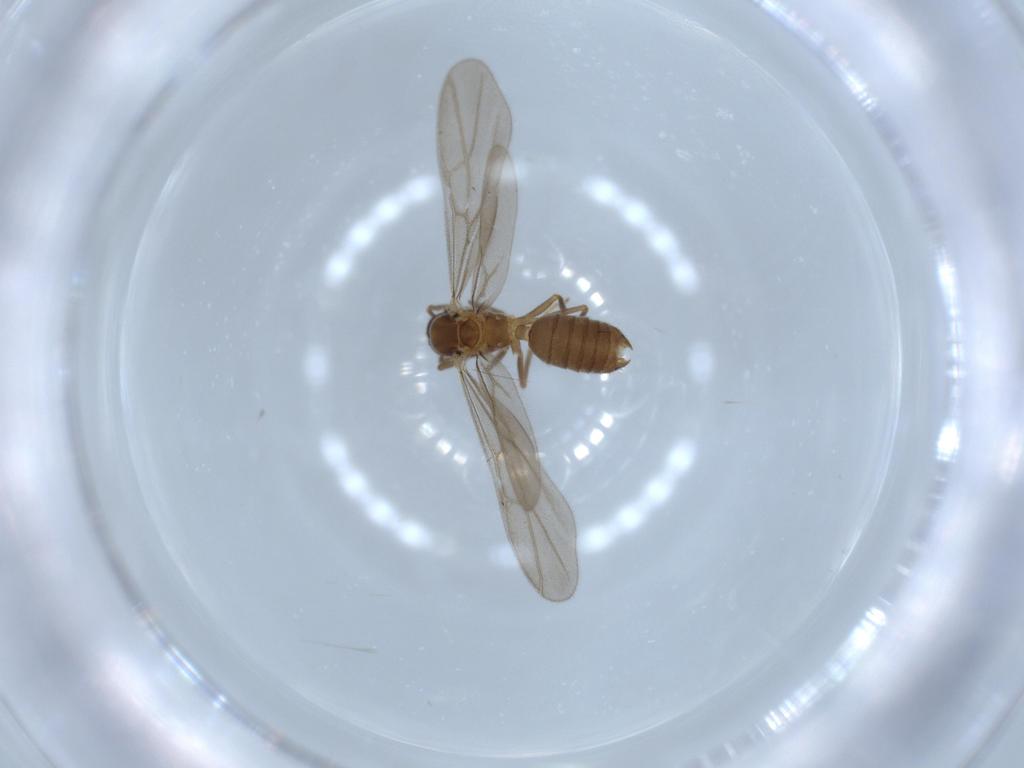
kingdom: Animalia
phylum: Arthropoda
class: Insecta
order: Hymenoptera
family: Formicidae
